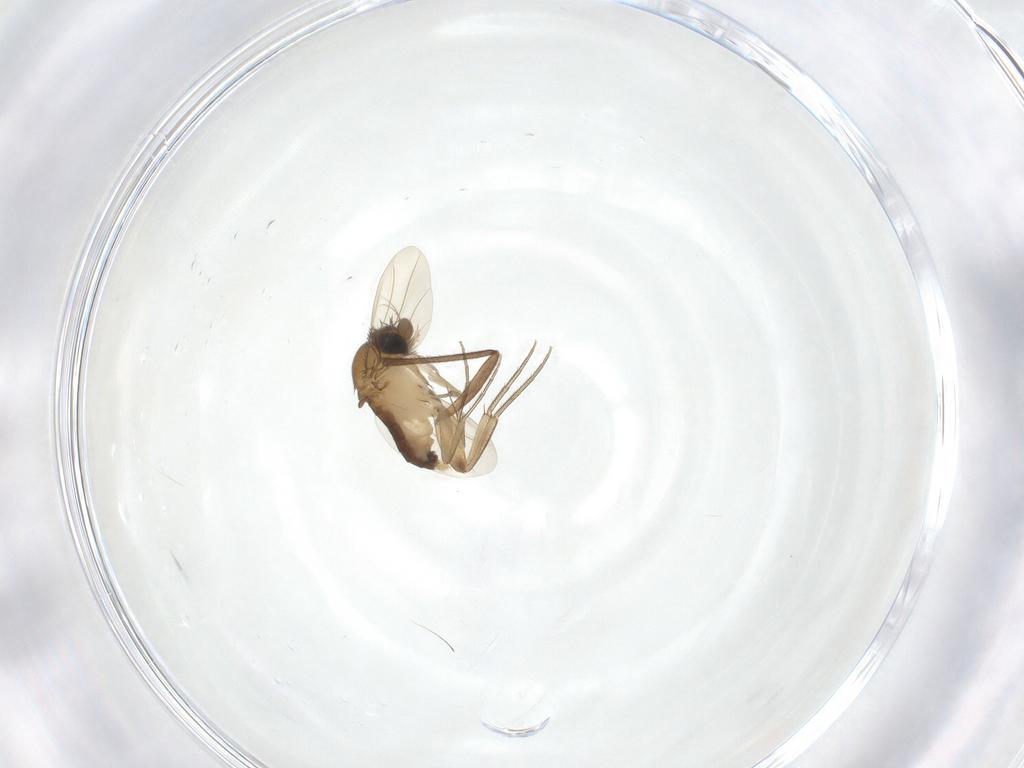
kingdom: Animalia
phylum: Arthropoda
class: Insecta
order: Diptera
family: Phoridae
